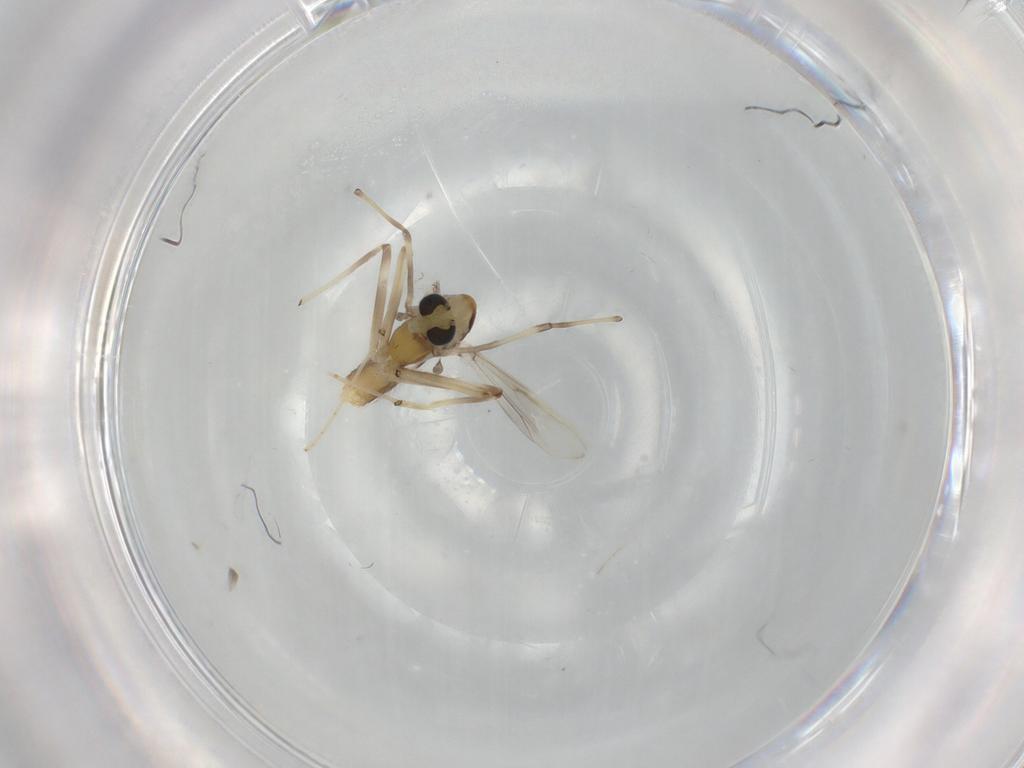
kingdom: Animalia
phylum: Arthropoda
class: Insecta
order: Diptera
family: Chironomidae
